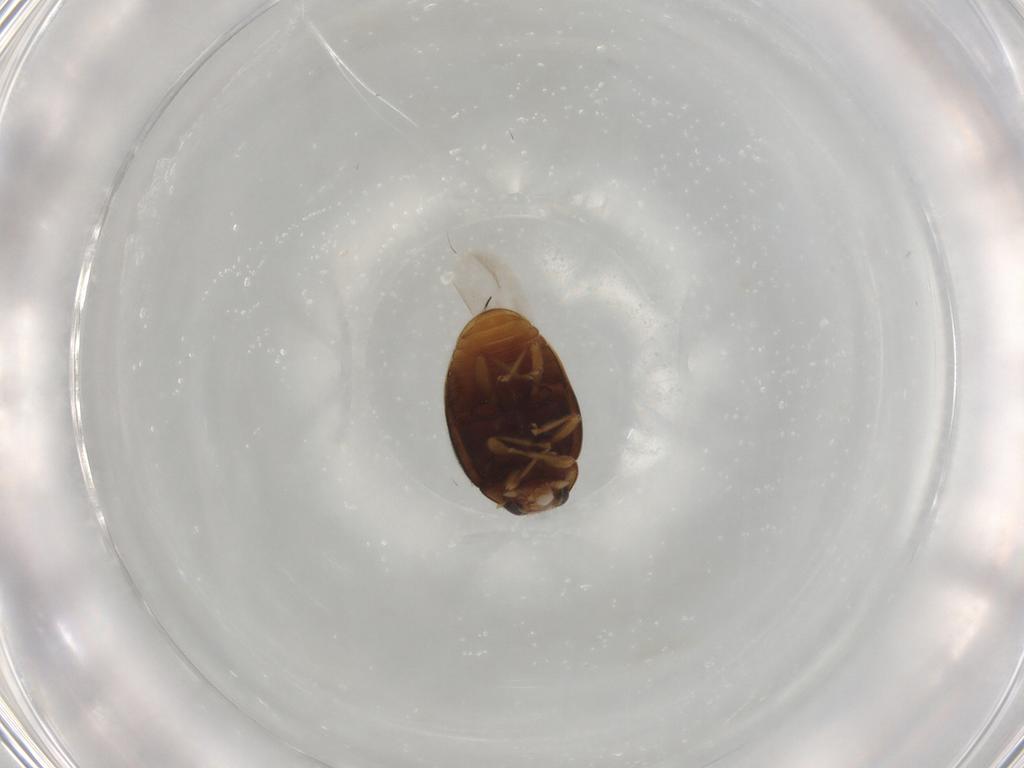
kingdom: Animalia
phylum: Arthropoda
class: Insecta
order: Coleoptera
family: Coccinellidae
